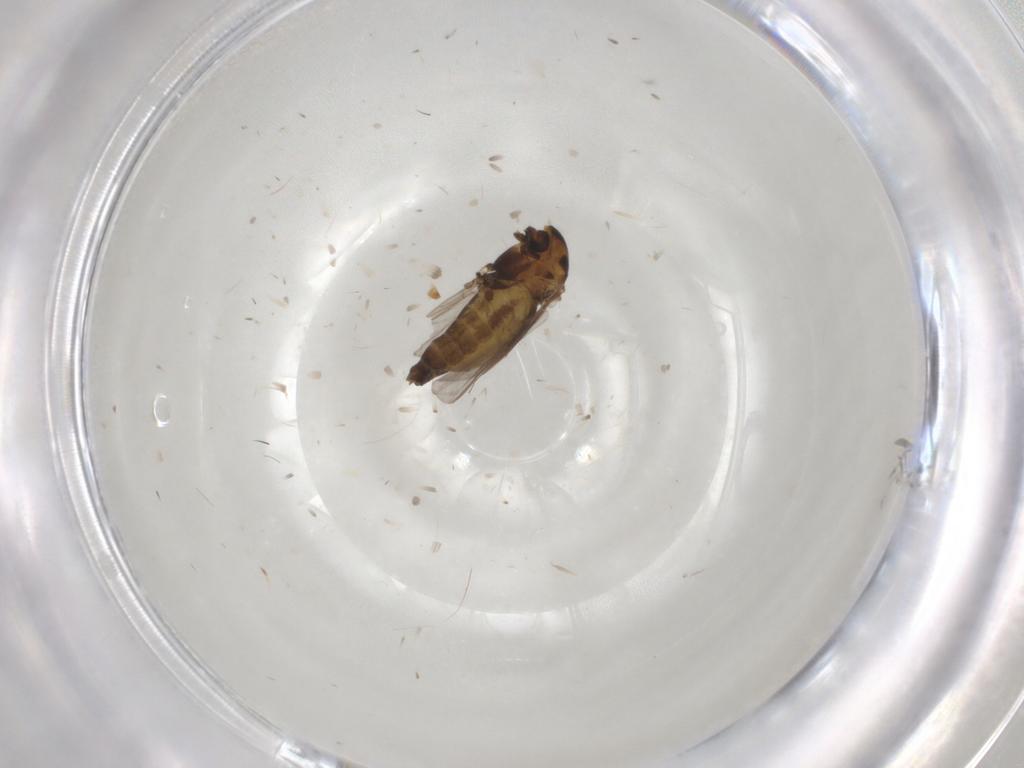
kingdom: Animalia
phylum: Arthropoda
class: Insecta
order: Diptera
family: Chironomidae
